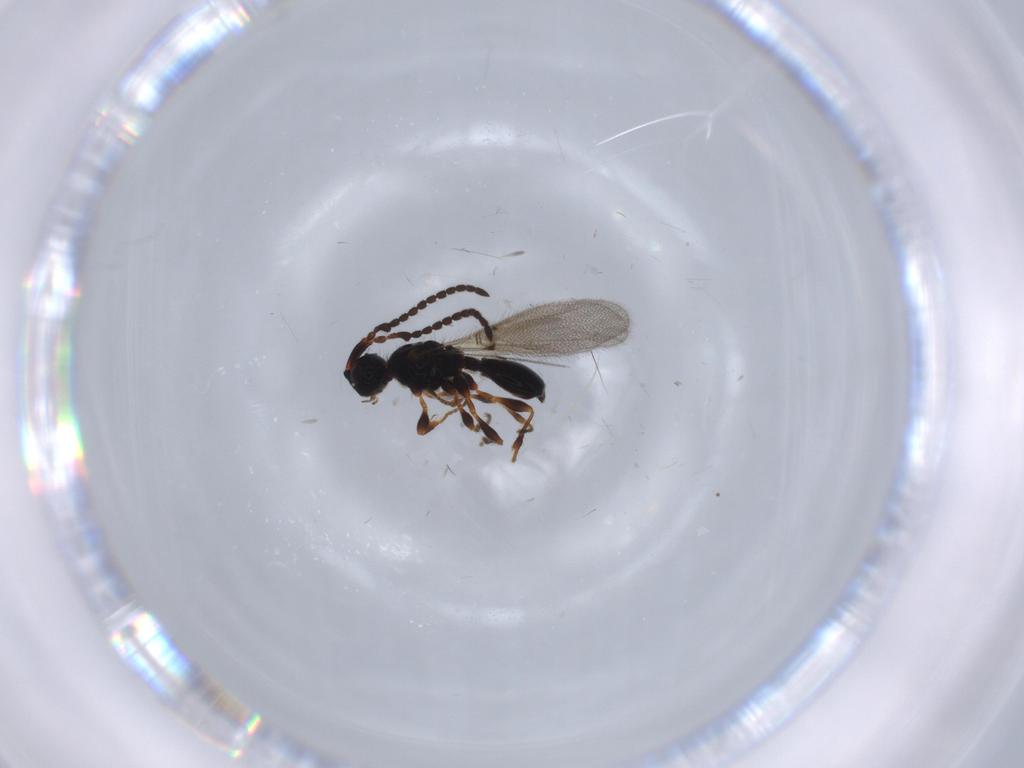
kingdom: Animalia
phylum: Arthropoda
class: Insecta
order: Hymenoptera
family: Diapriidae
